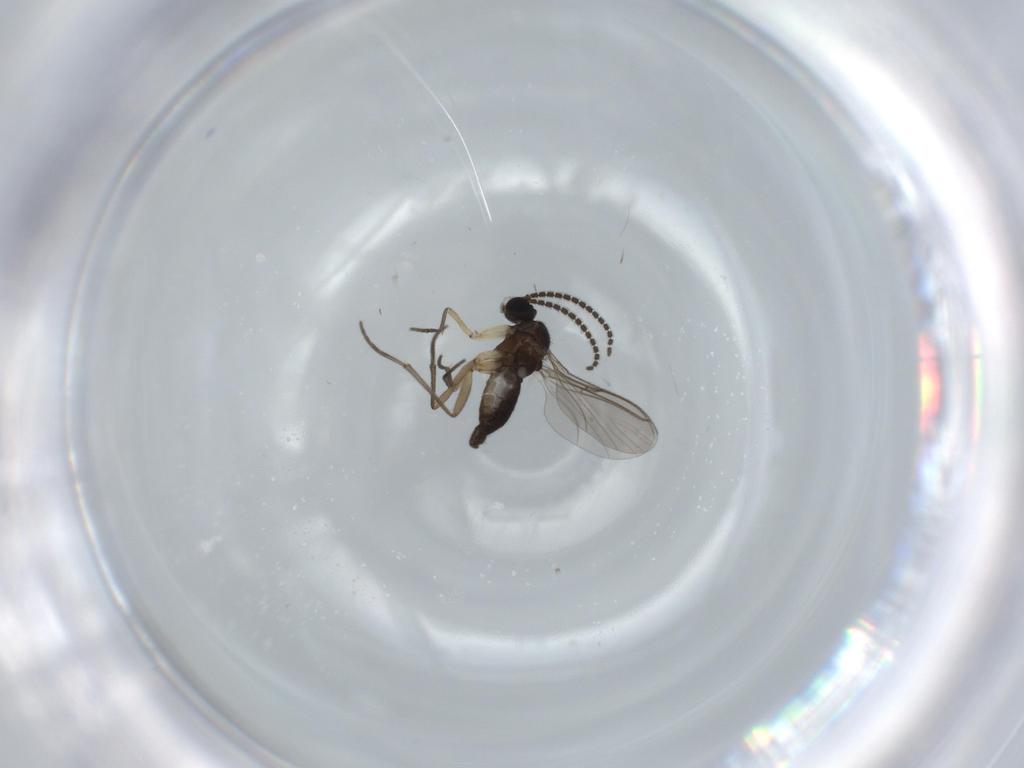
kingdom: Animalia
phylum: Arthropoda
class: Insecta
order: Diptera
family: Sciaridae
